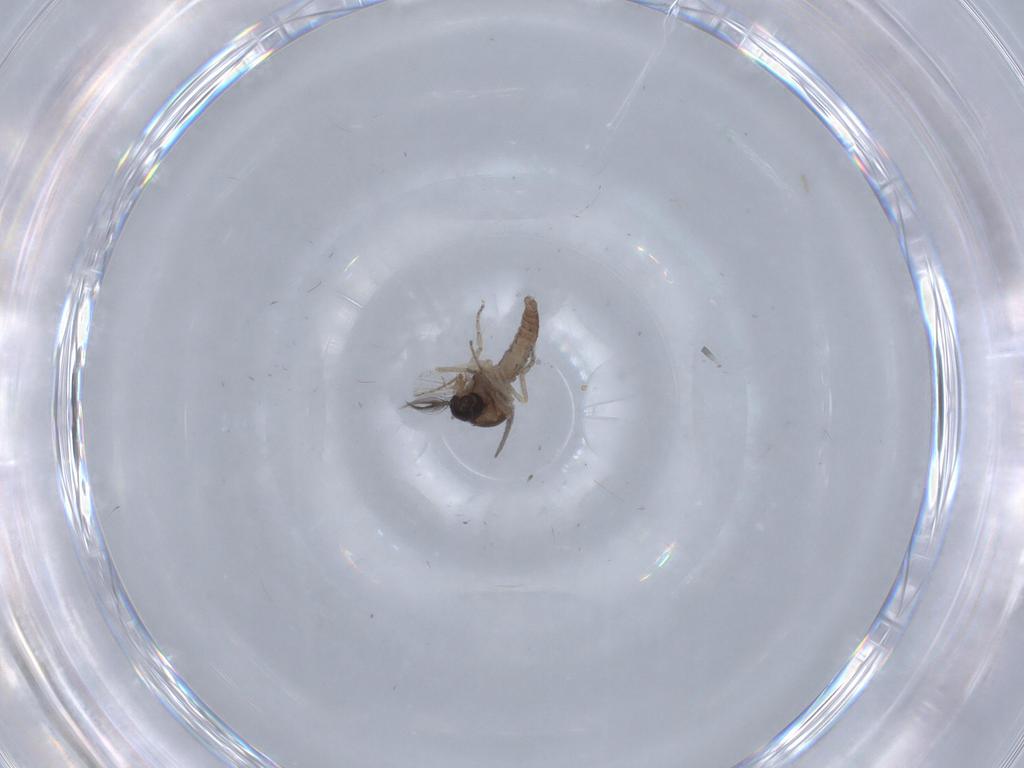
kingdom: Animalia
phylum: Arthropoda
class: Insecta
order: Diptera
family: Ceratopogonidae
